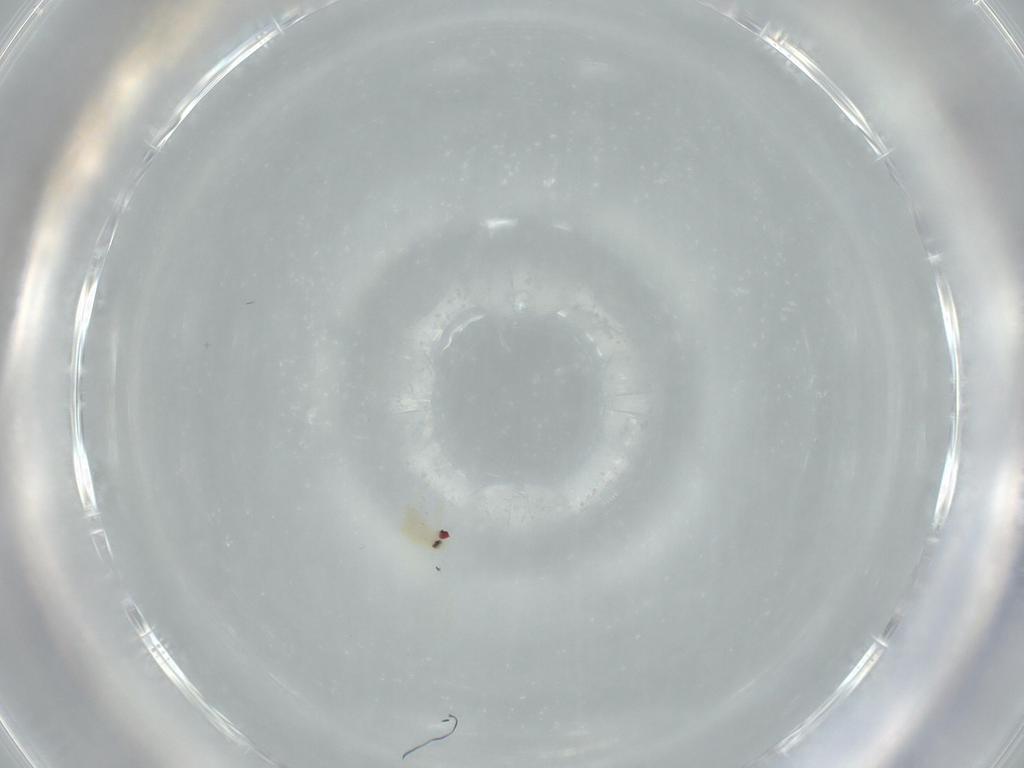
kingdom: Animalia
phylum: Arthropoda
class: Insecta
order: Hemiptera
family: Aleyrodidae
